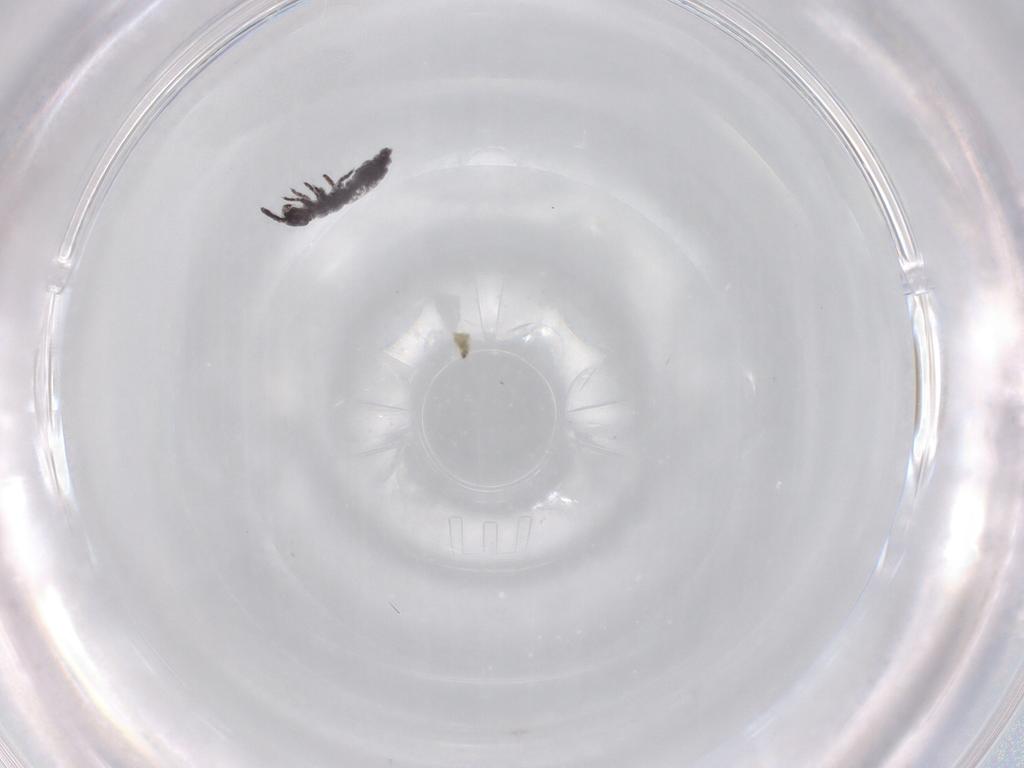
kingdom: Animalia
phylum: Arthropoda
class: Collembola
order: Poduromorpha
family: Hypogastruridae
